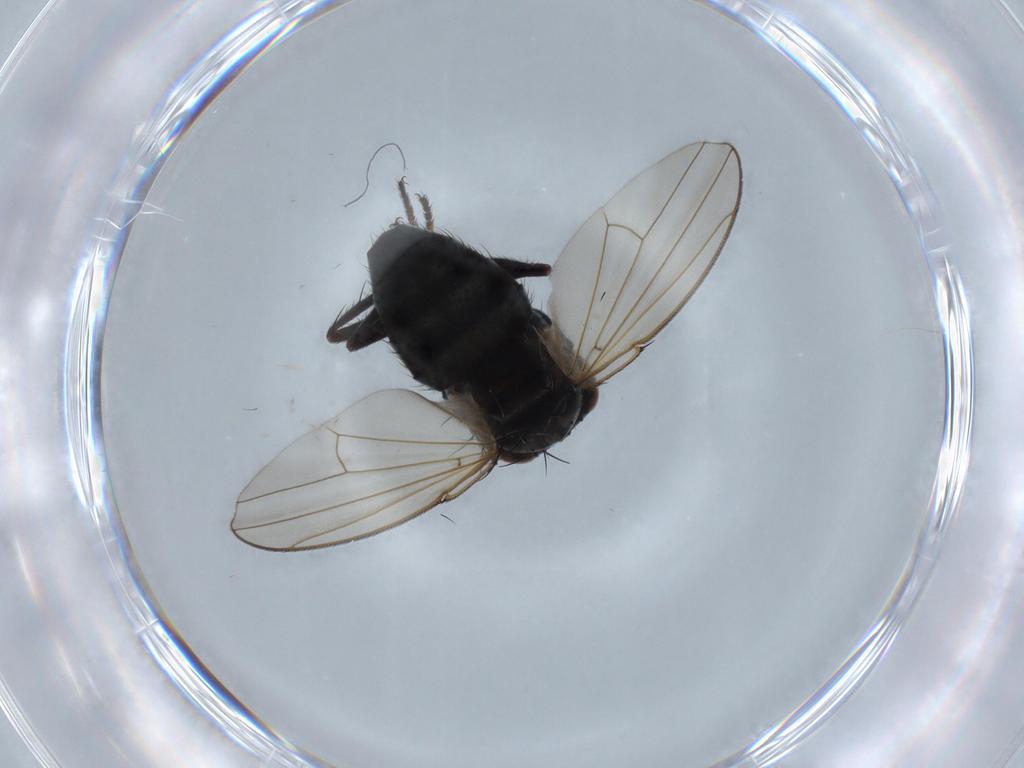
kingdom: Animalia
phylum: Arthropoda
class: Insecta
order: Diptera
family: Ephydridae
